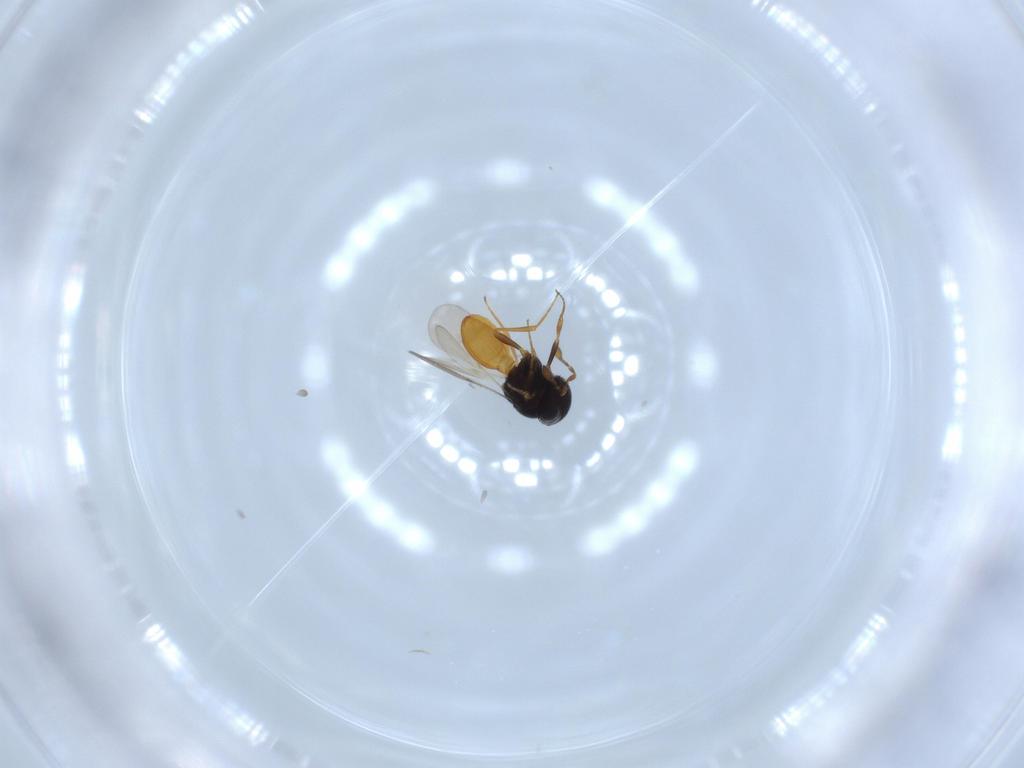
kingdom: Animalia
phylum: Arthropoda
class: Insecta
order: Hymenoptera
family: Scelionidae
